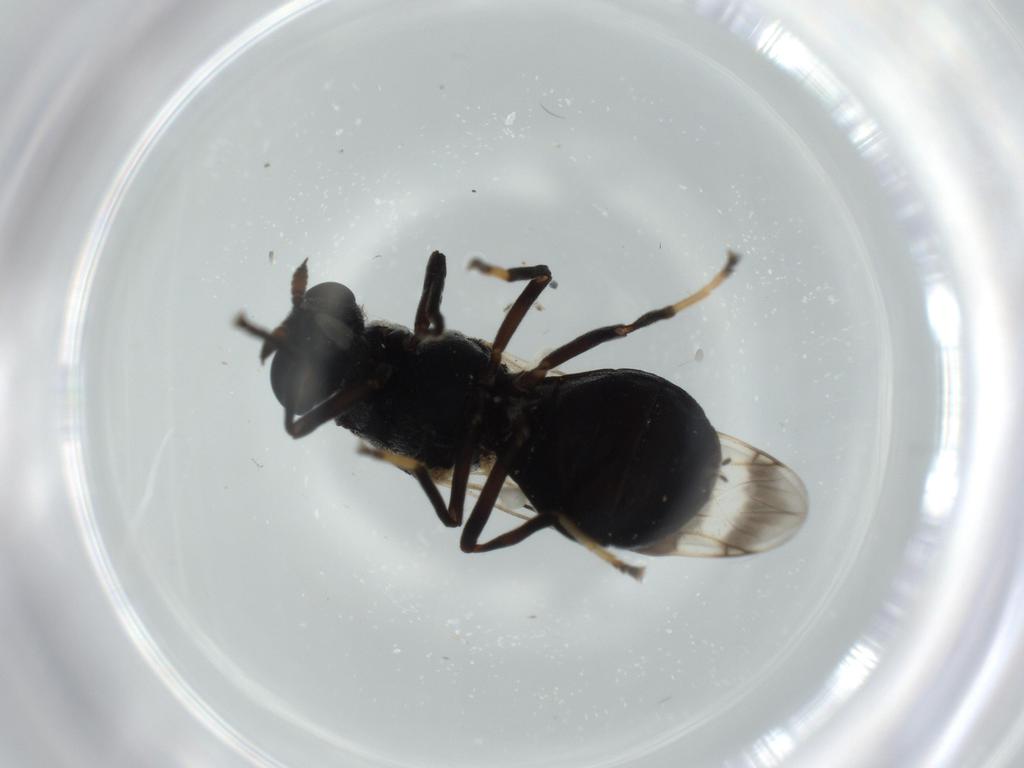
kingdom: Animalia
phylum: Arthropoda
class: Insecta
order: Diptera
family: Stratiomyidae
